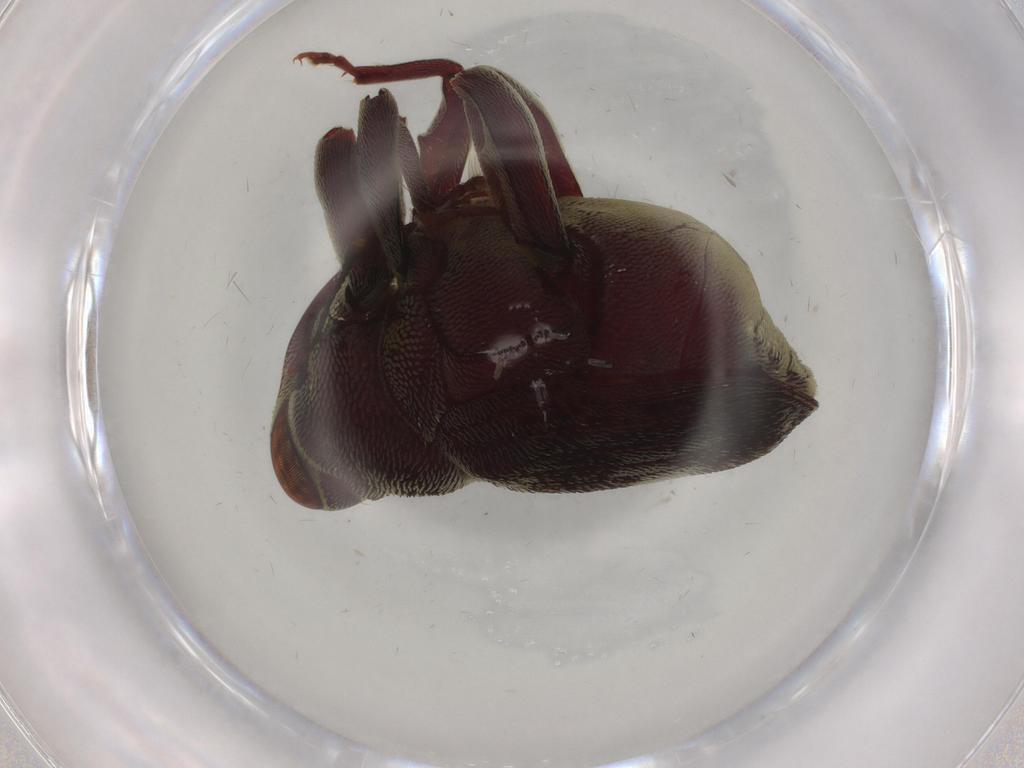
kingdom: Animalia
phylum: Arthropoda
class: Insecta
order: Coleoptera
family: Curculionidae
